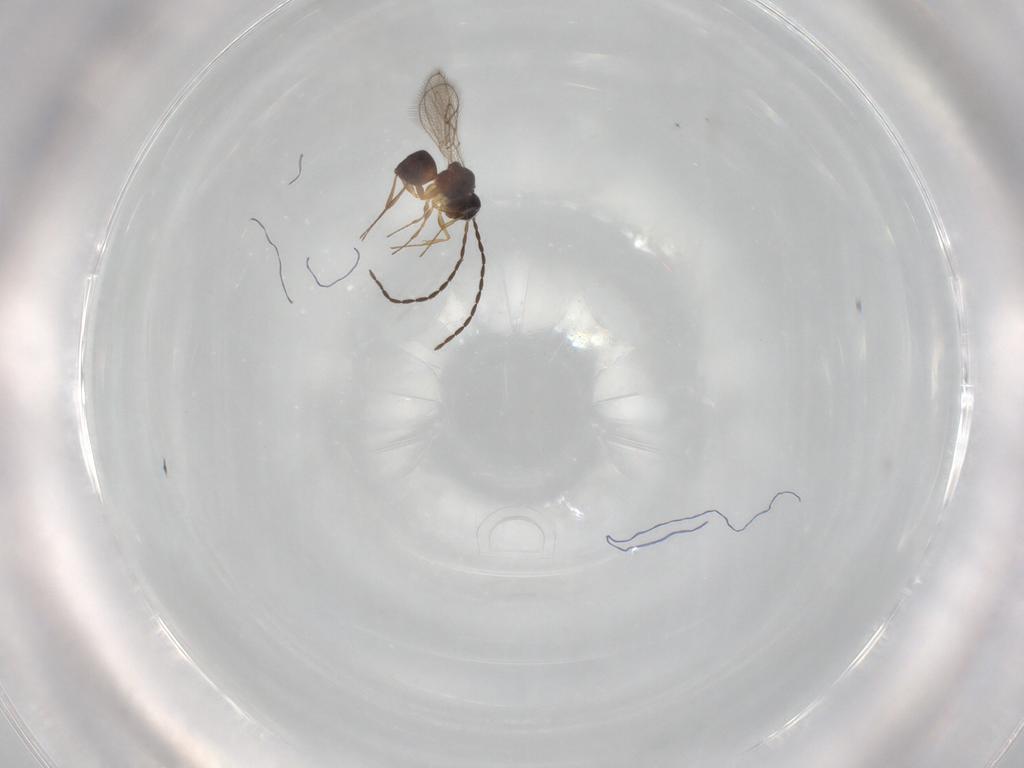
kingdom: Animalia
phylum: Arthropoda
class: Insecta
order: Hymenoptera
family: Figitidae
